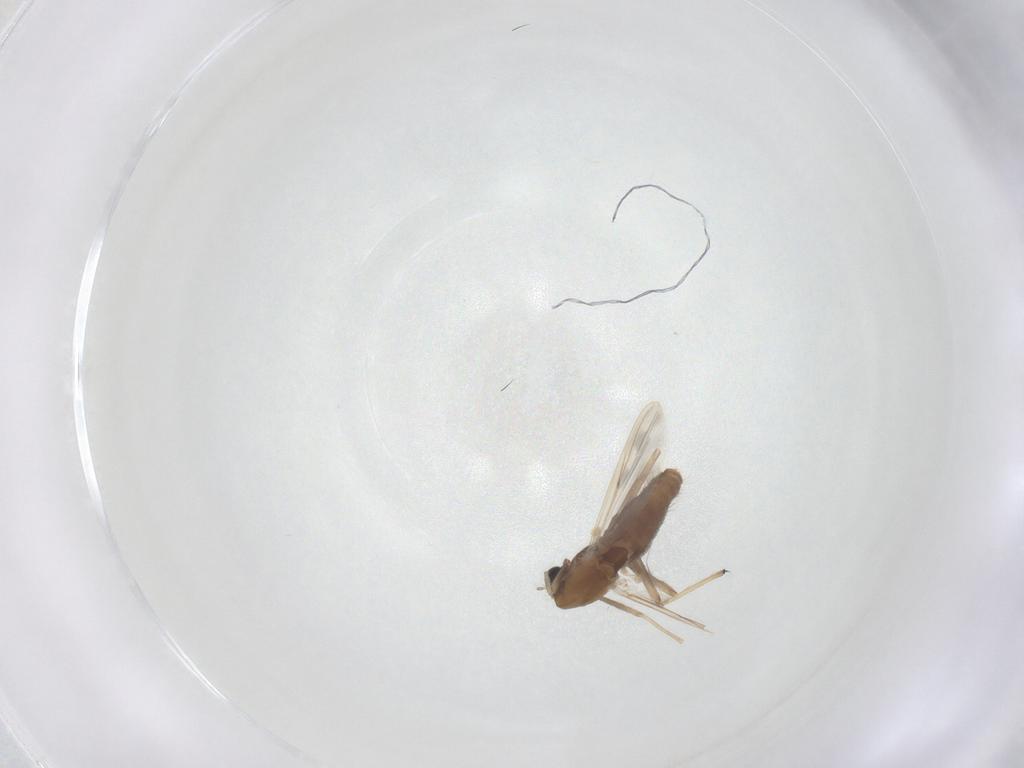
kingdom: Animalia
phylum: Arthropoda
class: Insecta
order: Diptera
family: Chironomidae
